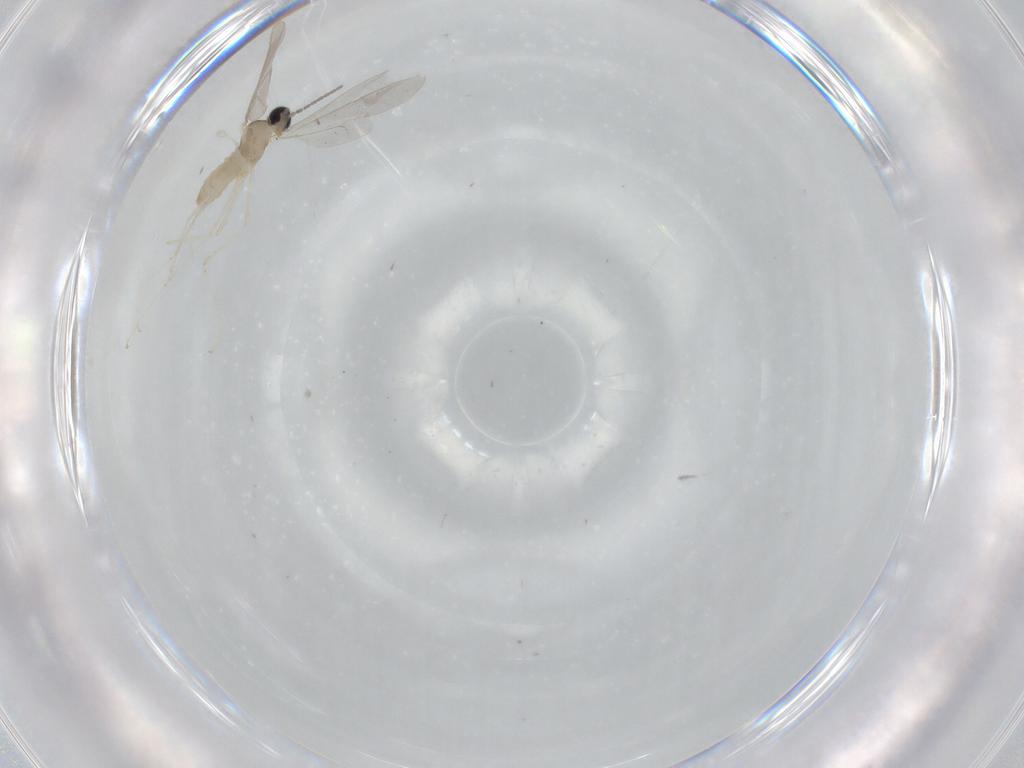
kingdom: Animalia
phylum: Arthropoda
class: Insecta
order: Diptera
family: Cecidomyiidae
